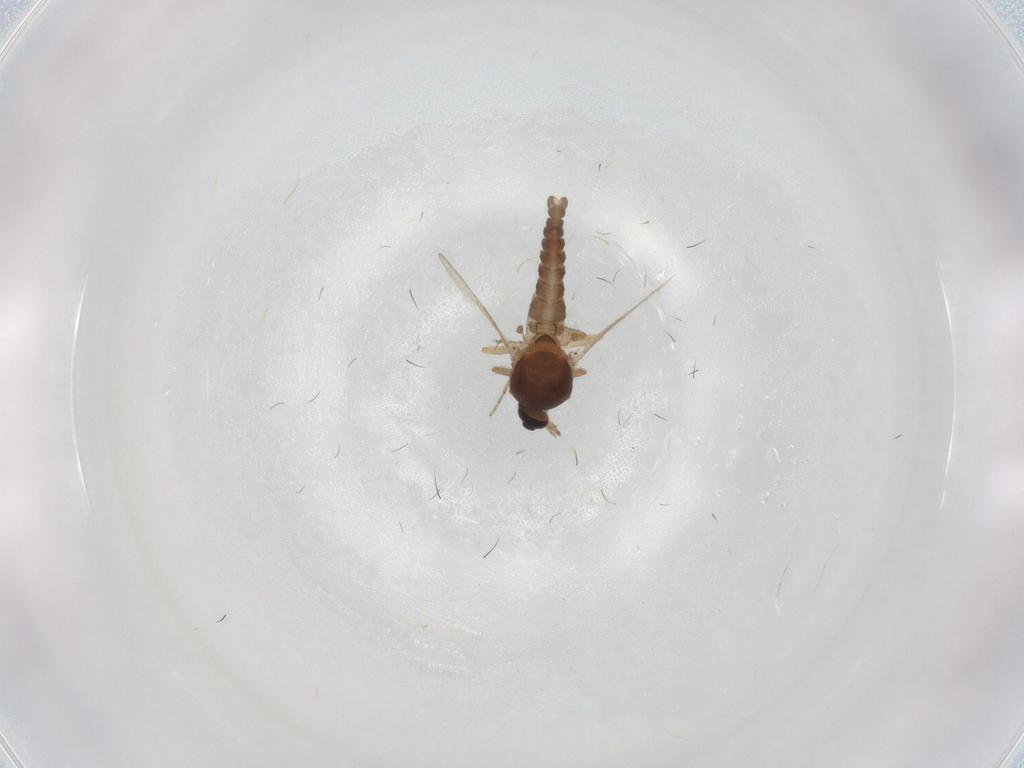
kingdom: Animalia
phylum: Arthropoda
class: Insecta
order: Diptera
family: Ceratopogonidae
